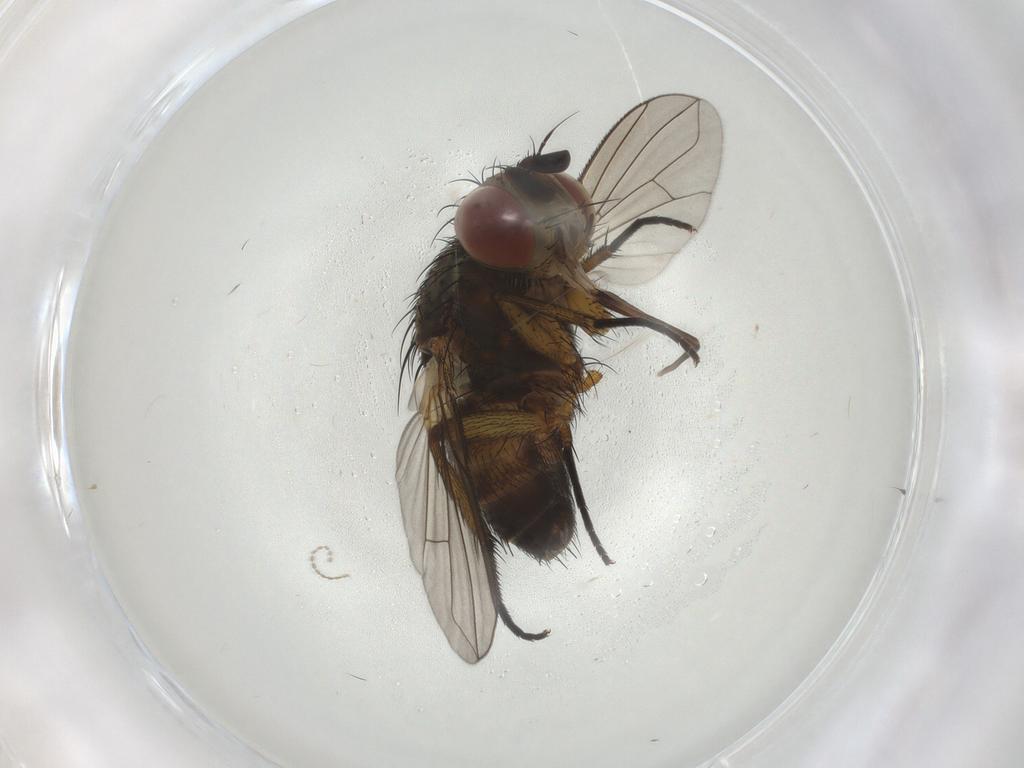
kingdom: Animalia
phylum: Arthropoda
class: Insecta
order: Diptera
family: Tachinidae
